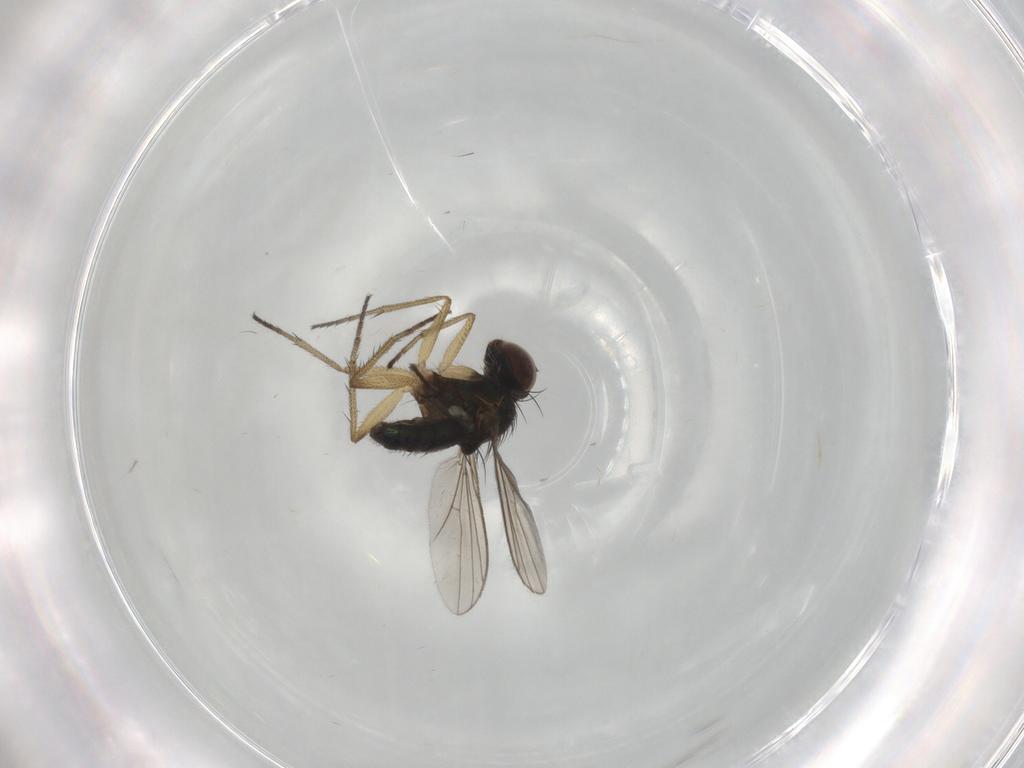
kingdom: Animalia
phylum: Arthropoda
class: Insecta
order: Diptera
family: Dolichopodidae
